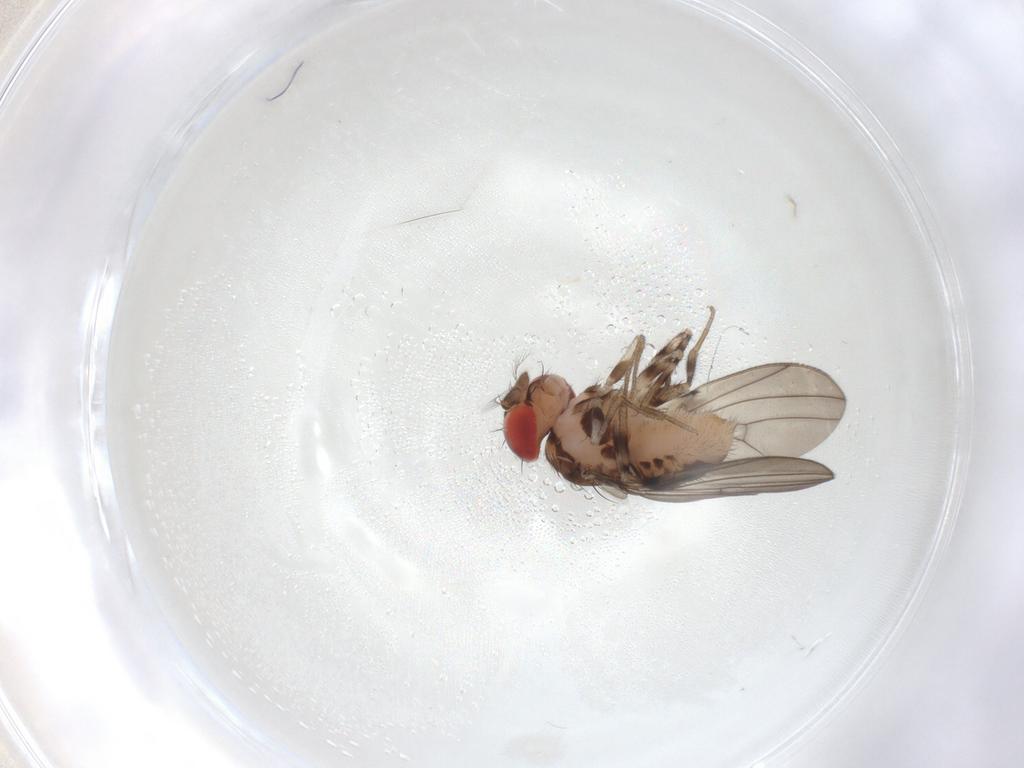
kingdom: Animalia
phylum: Arthropoda
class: Insecta
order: Diptera
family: Drosophilidae
